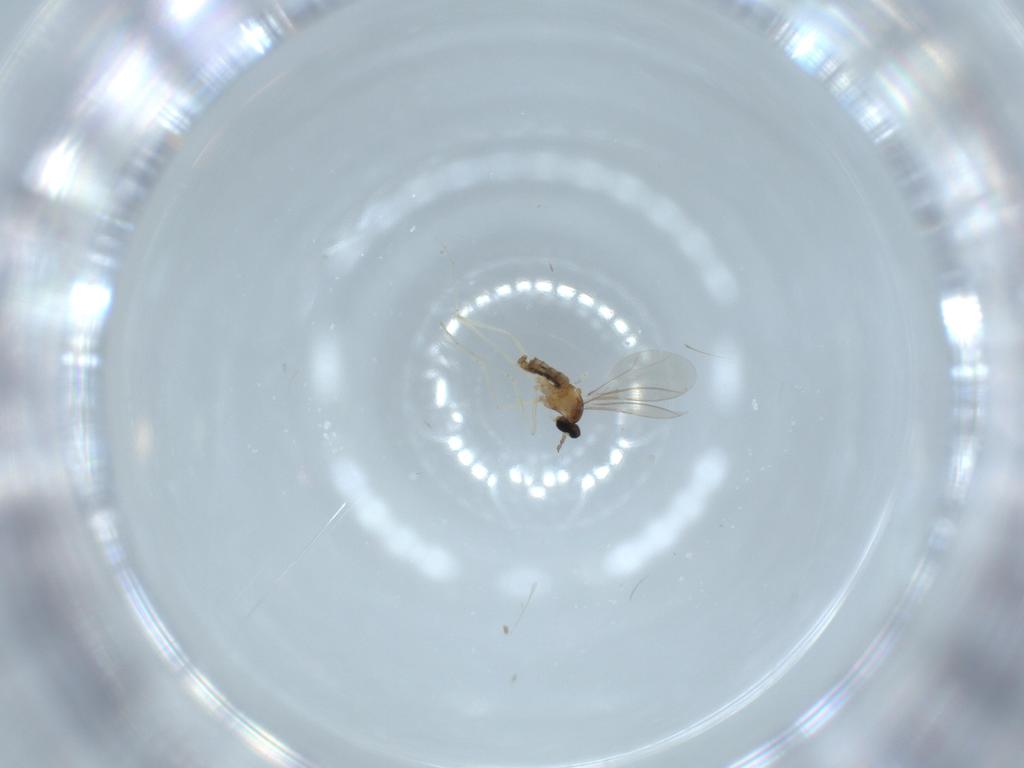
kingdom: Animalia
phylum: Arthropoda
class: Insecta
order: Diptera
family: Cecidomyiidae
